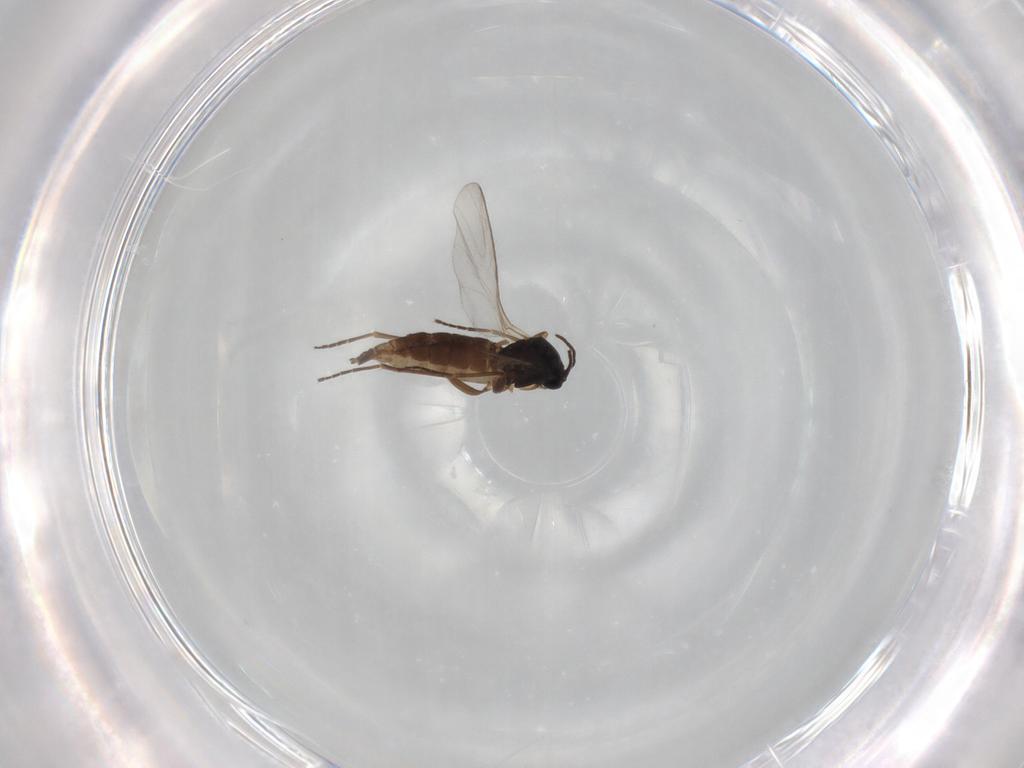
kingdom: Animalia
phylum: Arthropoda
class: Insecta
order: Diptera
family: Sciaridae
